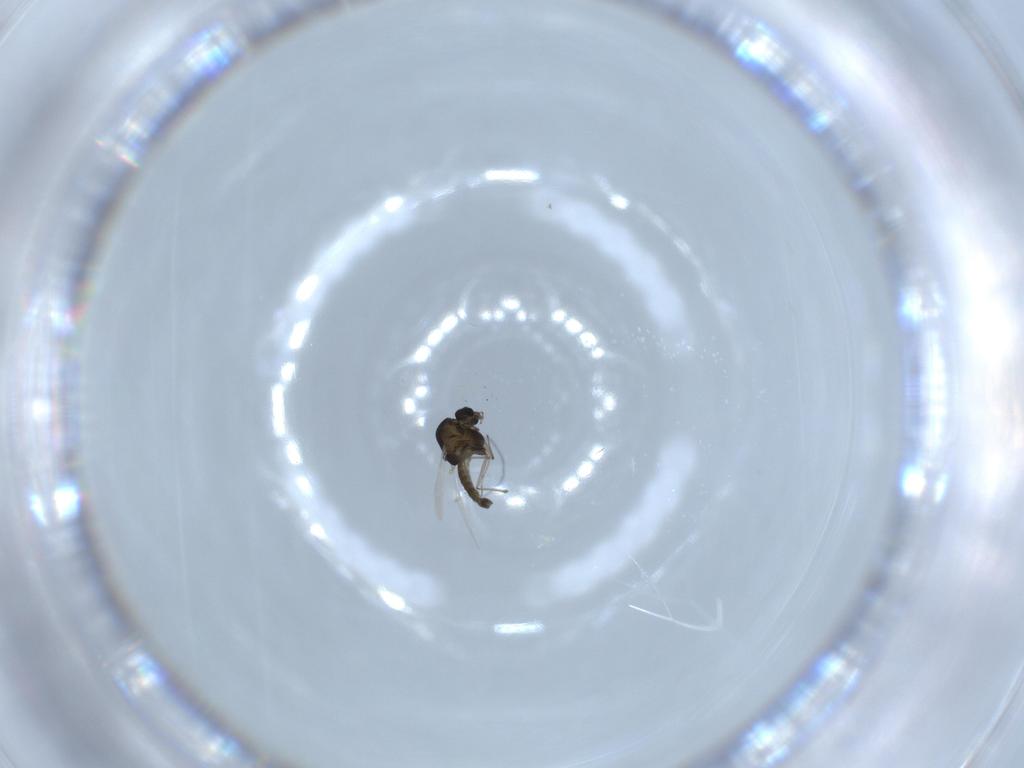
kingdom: Animalia
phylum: Arthropoda
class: Insecta
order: Diptera
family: Chironomidae
